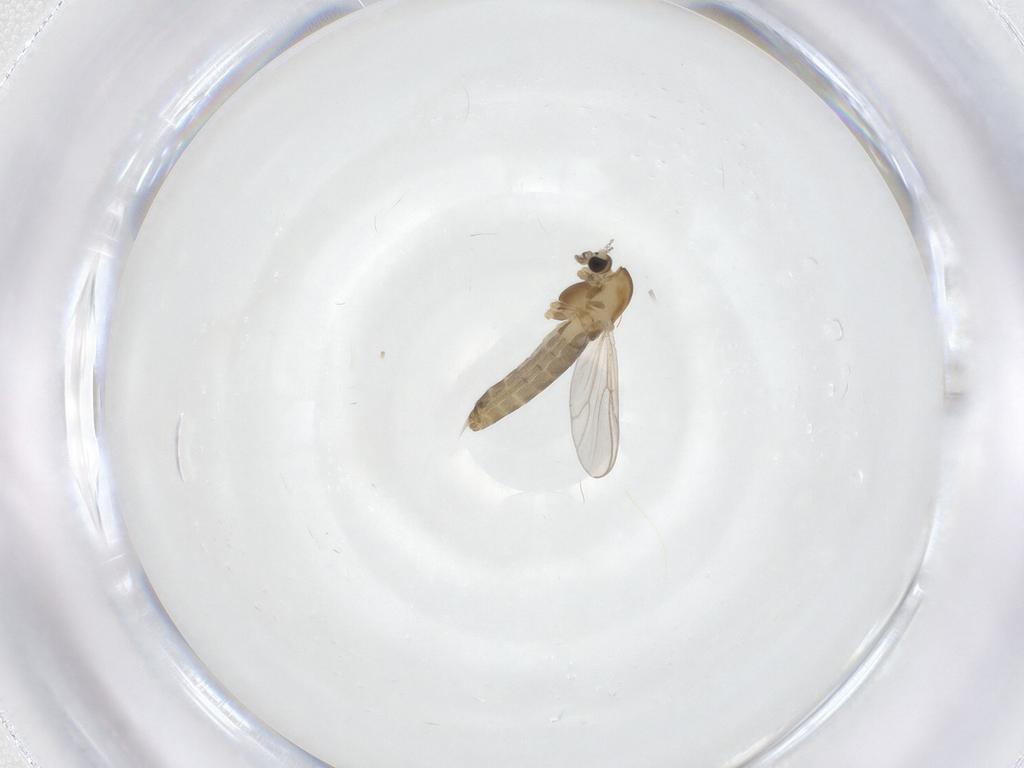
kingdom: Animalia
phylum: Arthropoda
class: Insecta
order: Diptera
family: Chironomidae
